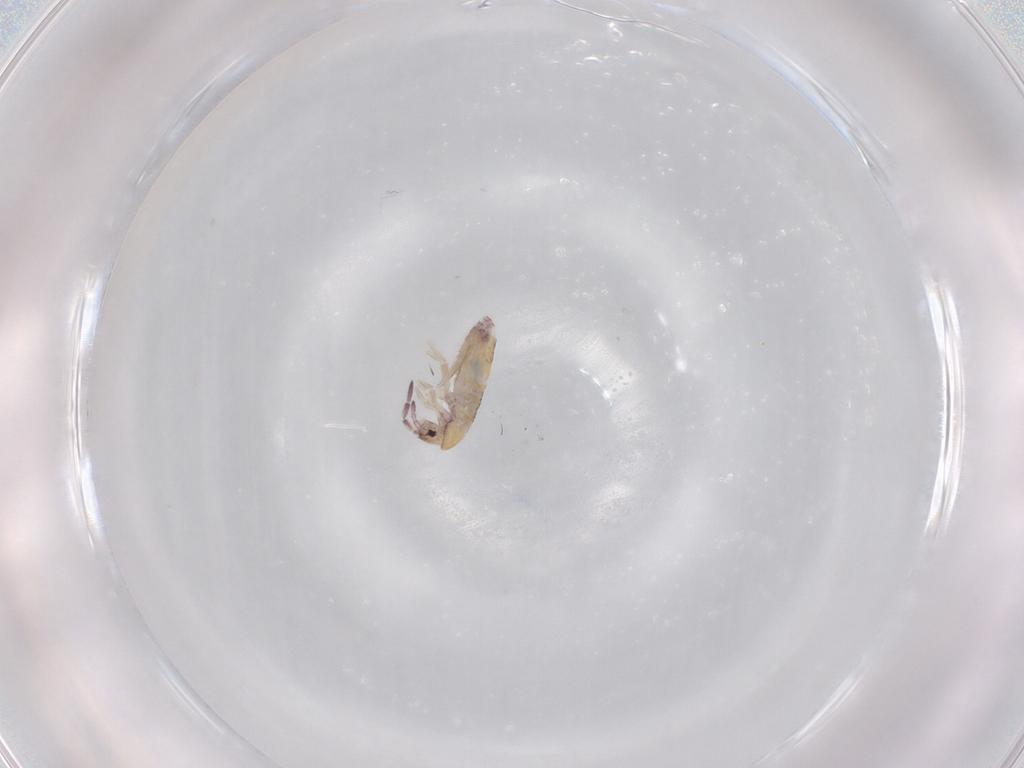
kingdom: Animalia
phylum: Arthropoda
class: Collembola
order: Entomobryomorpha
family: Entomobryidae
